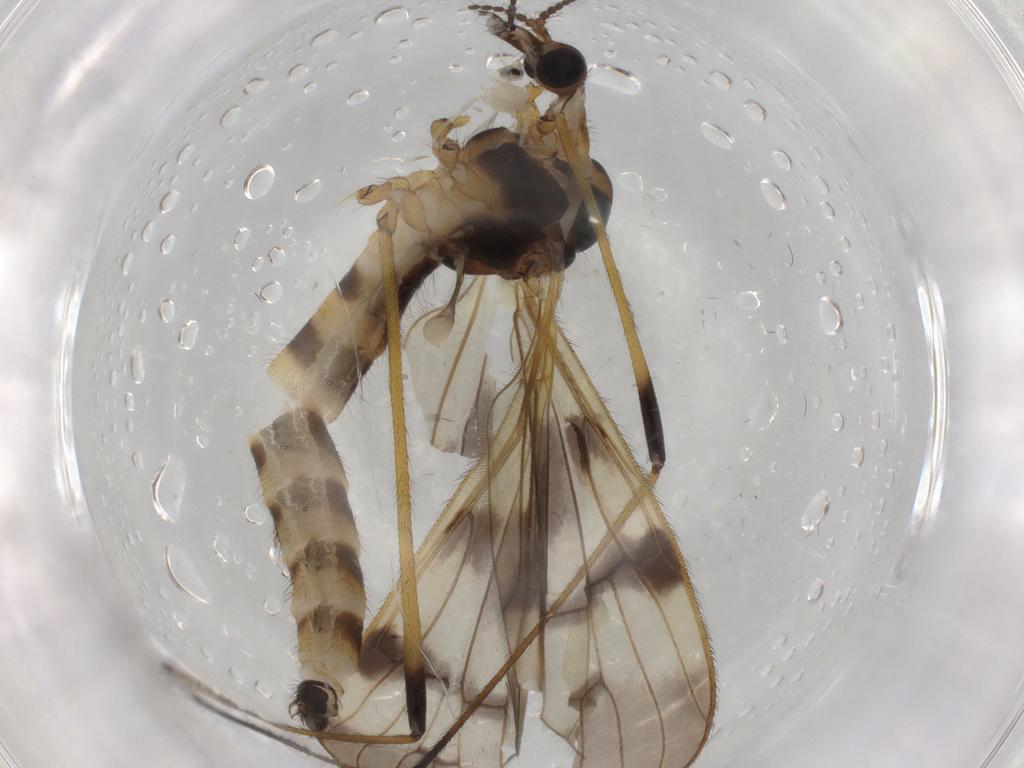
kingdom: Animalia
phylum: Arthropoda
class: Insecta
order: Diptera
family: Limoniidae
